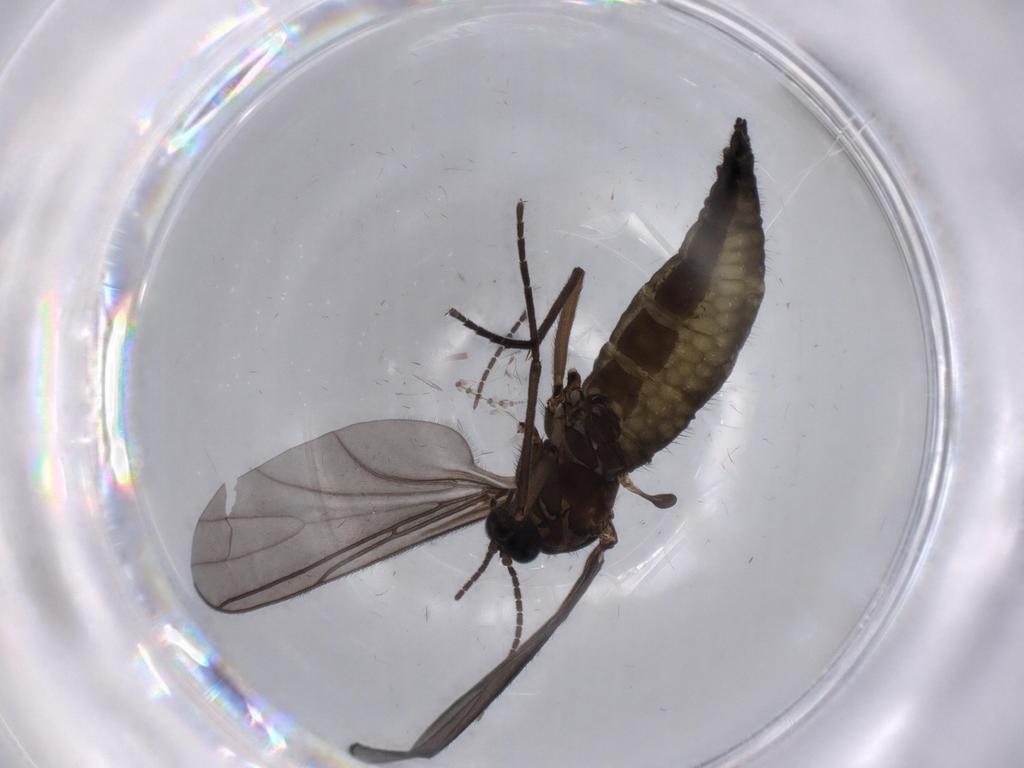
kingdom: Animalia
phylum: Arthropoda
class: Insecta
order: Diptera
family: Sciaridae
